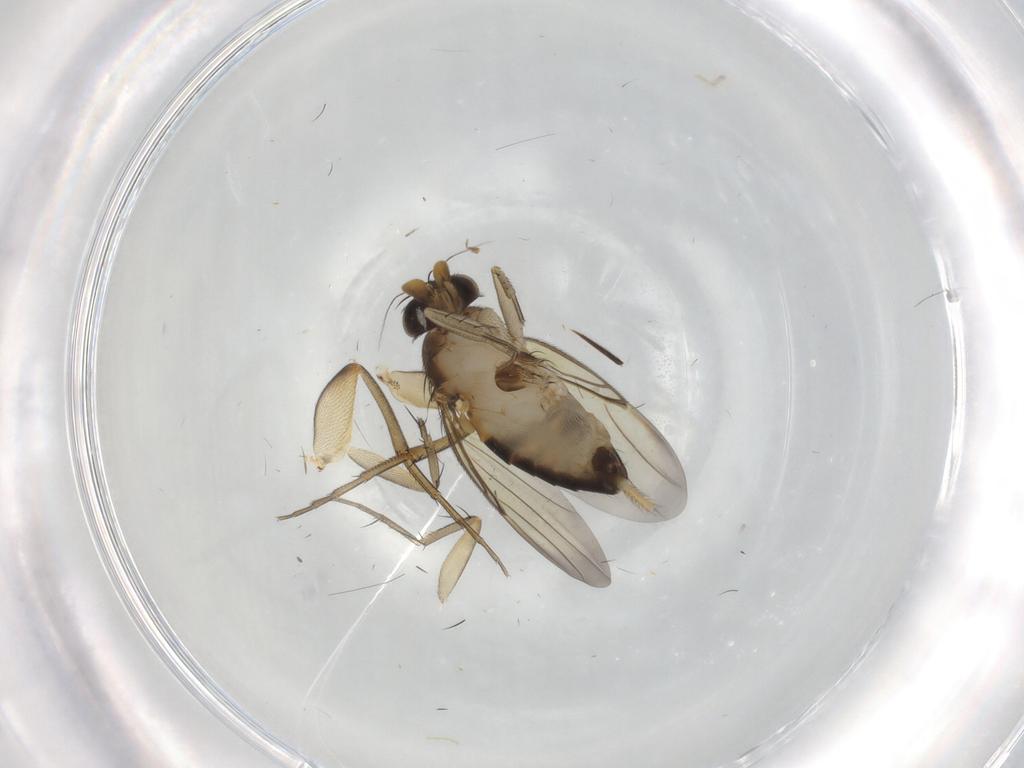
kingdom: Animalia
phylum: Arthropoda
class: Insecta
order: Diptera
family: Phoridae
